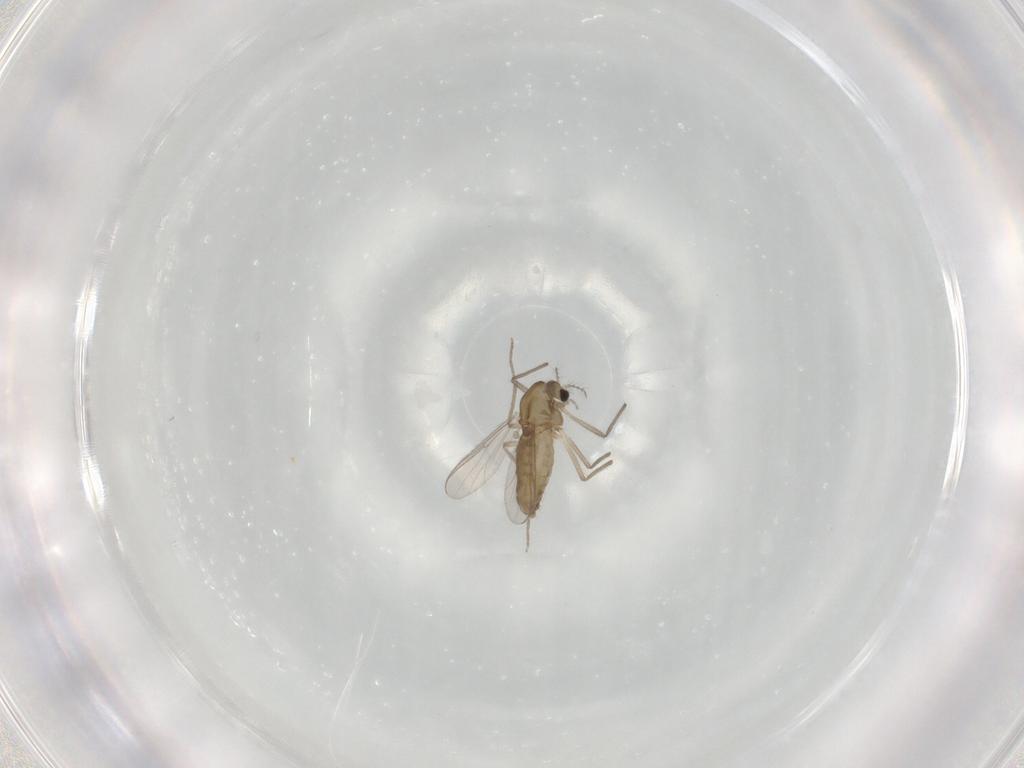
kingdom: Animalia
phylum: Arthropoda
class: Insecta
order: Diptera
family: Chironomidae
